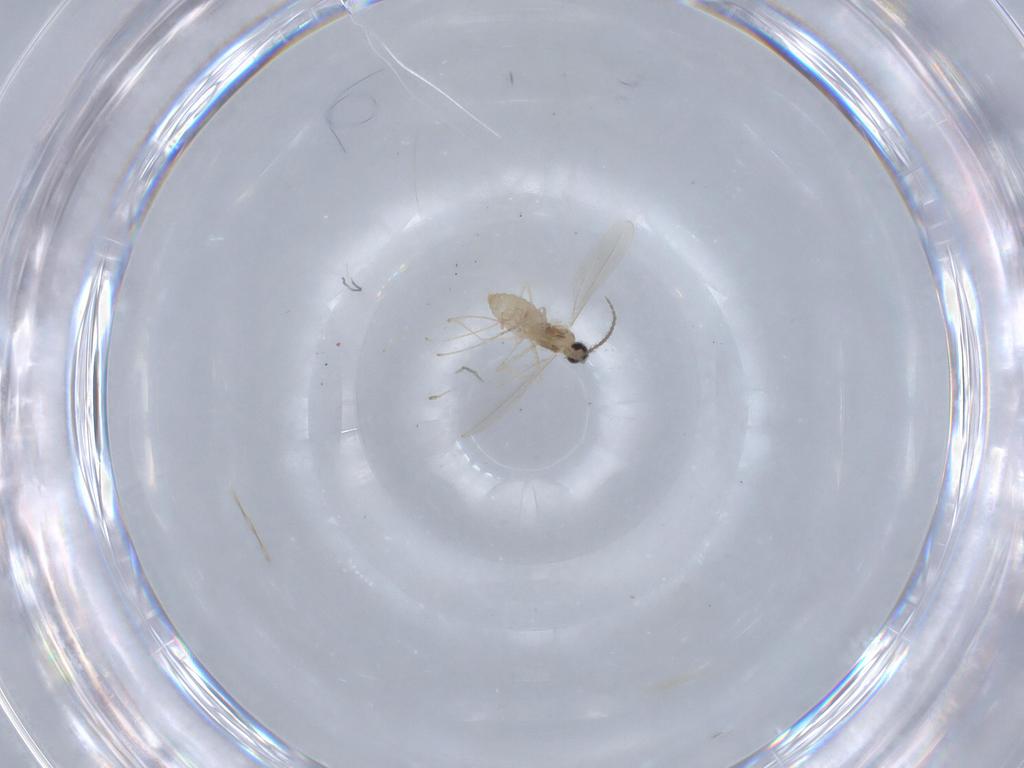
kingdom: Animalia
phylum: Arthropoda
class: Insecta
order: Diptera
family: Cecidomyiidae
